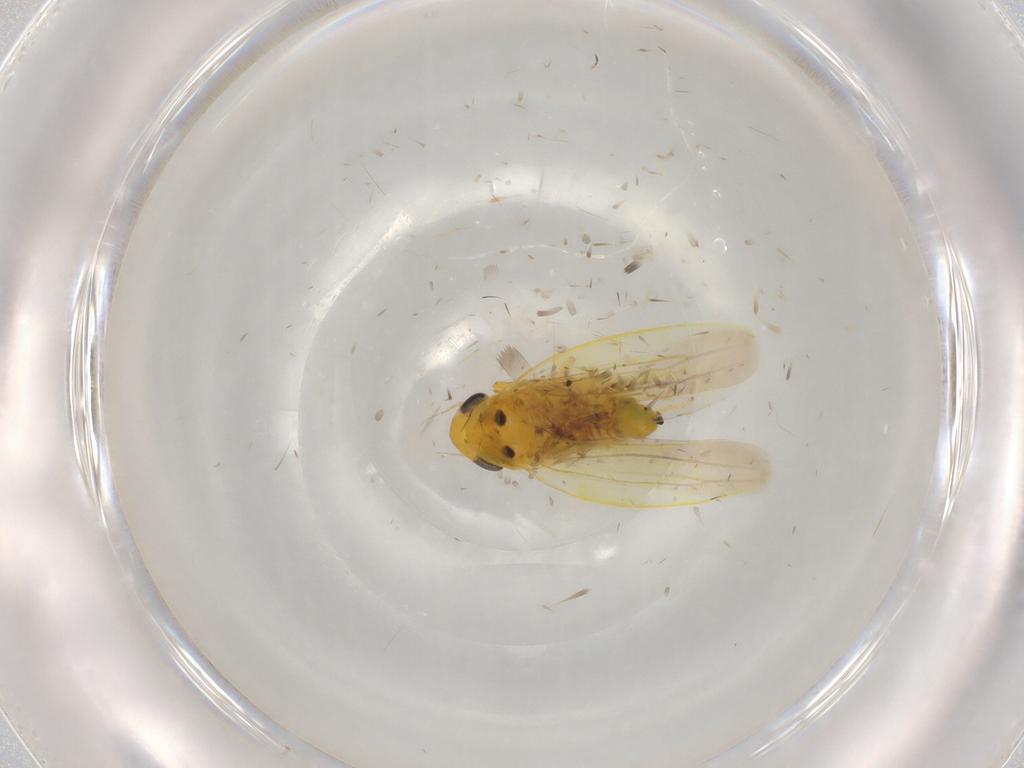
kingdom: Animalia
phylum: Arthropoda
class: Insecta
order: Hemiptera
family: Cicadellidae
